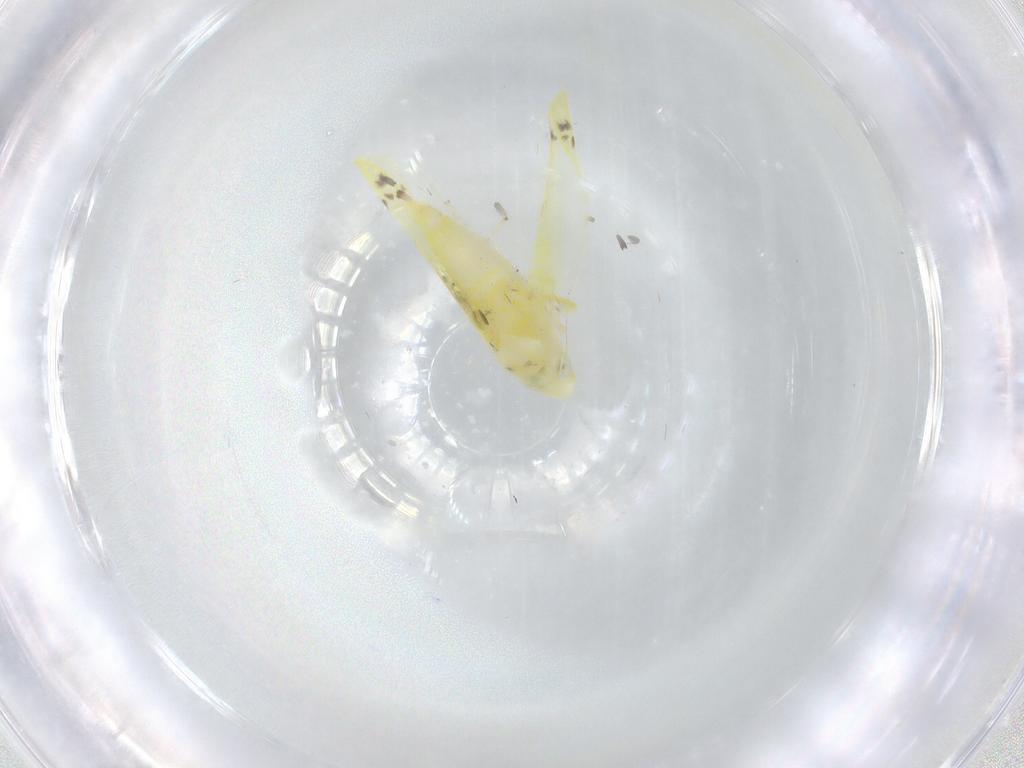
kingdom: Animalia
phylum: Arthropoda
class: Insecta
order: Hemiptera
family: Cicadellidae
